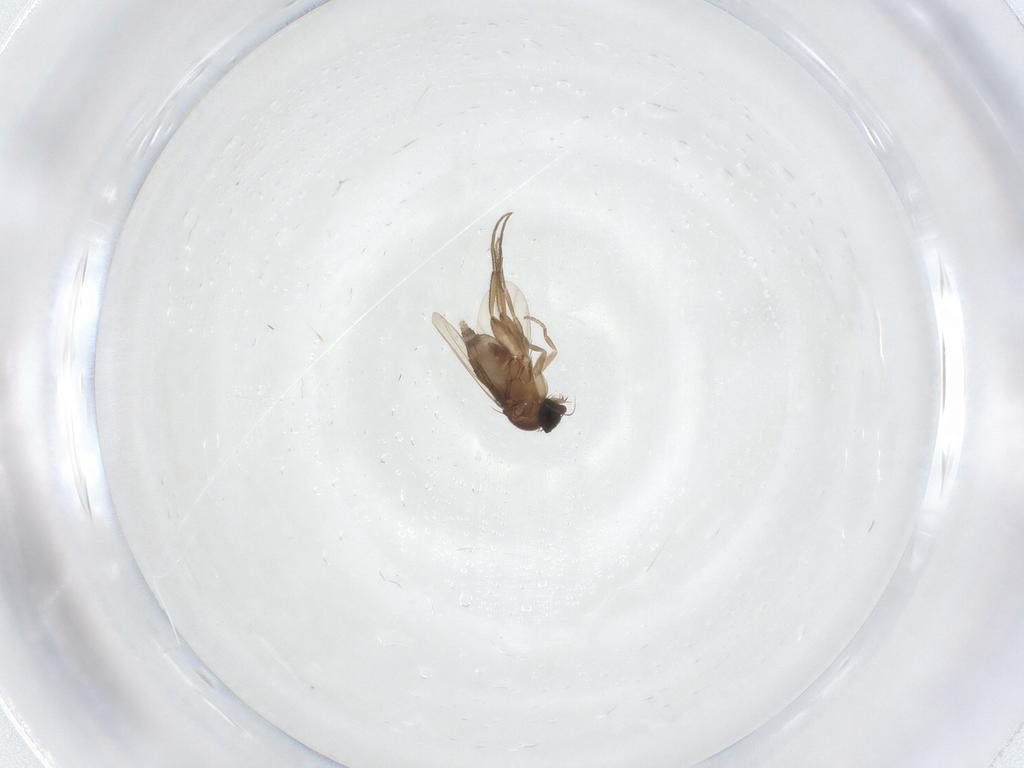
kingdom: Animalia
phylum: Arthropoda
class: Insecta
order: Diptera
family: Phoridae
